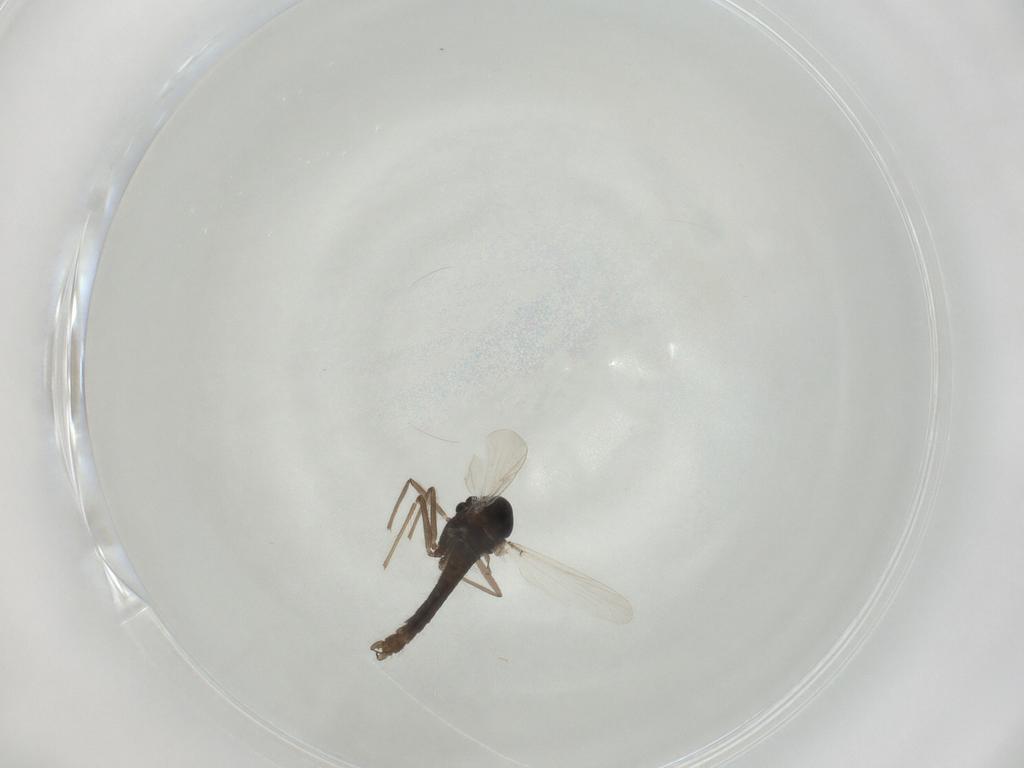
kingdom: Animalia
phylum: Arthropoda
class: Insecta
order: Diptera
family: Chironomidae
